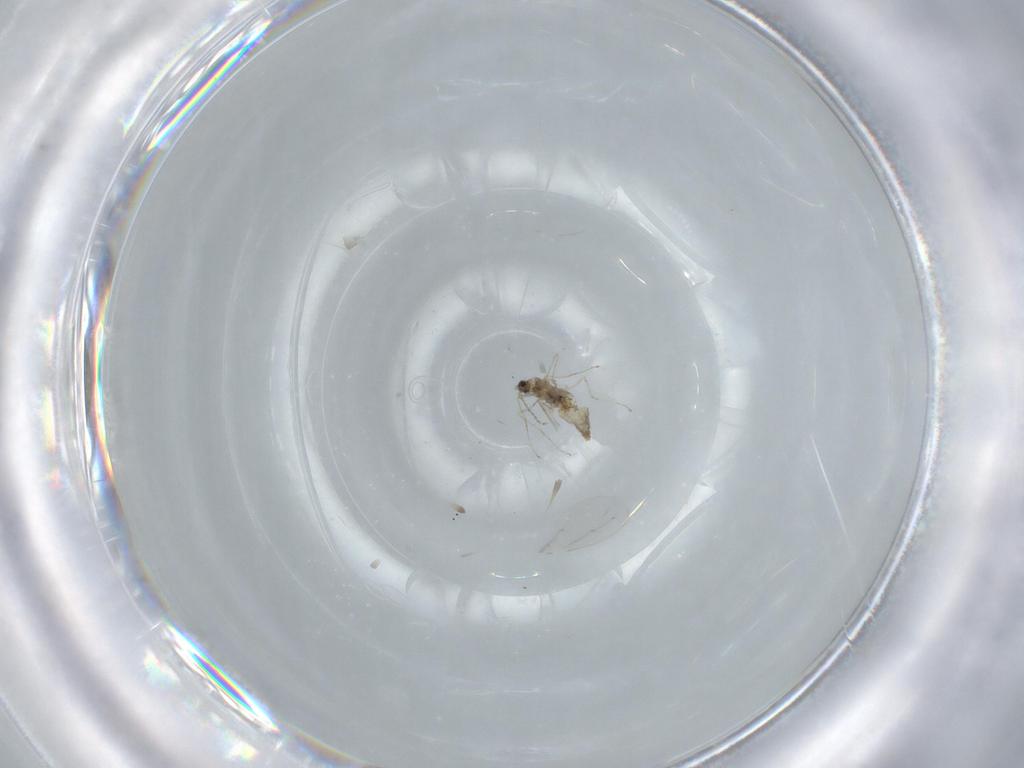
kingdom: Animalia
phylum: Arthropoda
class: Insecta
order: Diptera
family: Cecidomyiidae
